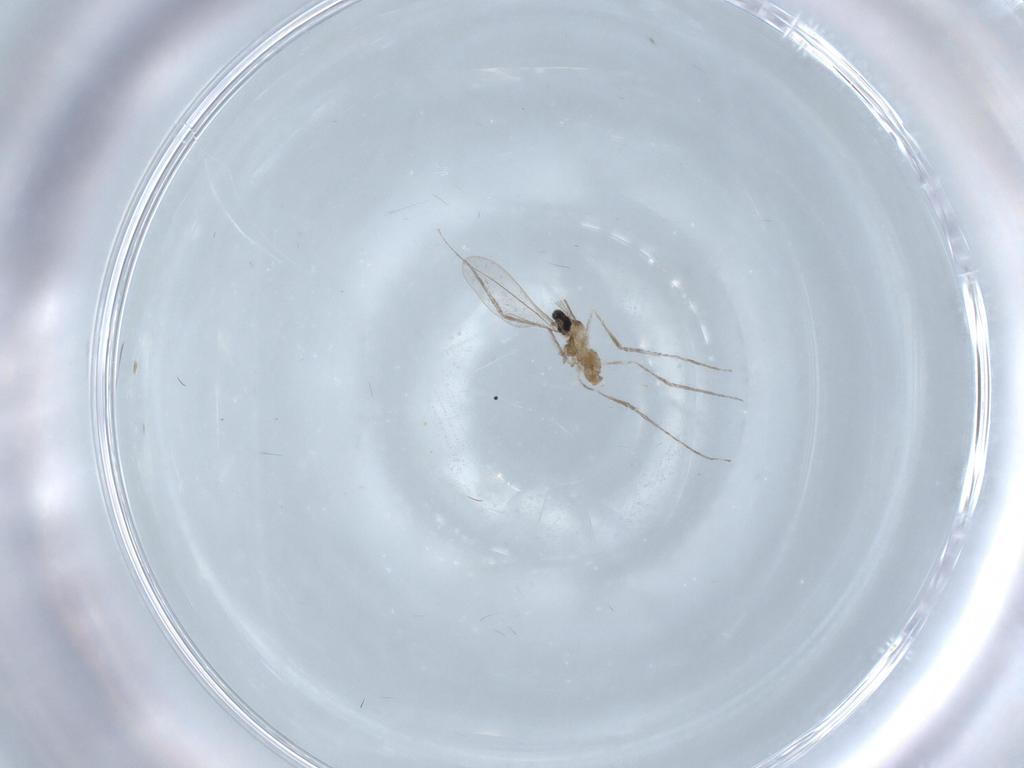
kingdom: Animalia
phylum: Arthropoda
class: Insecta
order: Diptera
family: Cecidomyiidae
